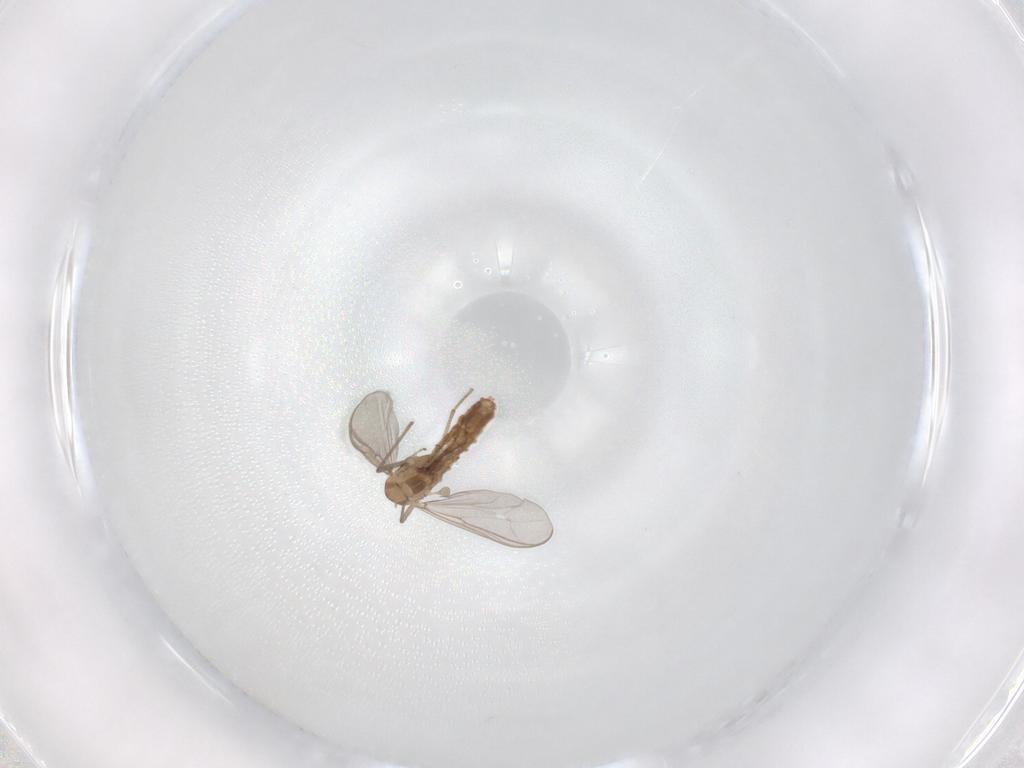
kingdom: Animalia
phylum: Arthropoda
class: Insecta
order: Diptera
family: Chironomidae
